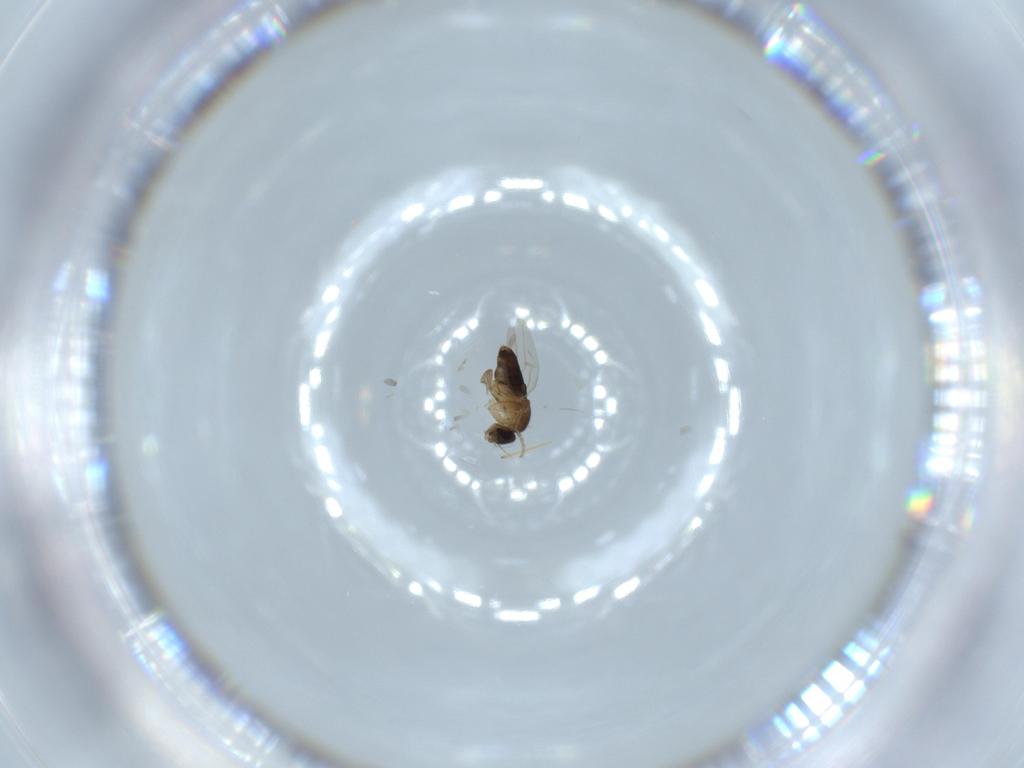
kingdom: Animalia
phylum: Arthropoda
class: Insecta
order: Diptera
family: Phoridae
